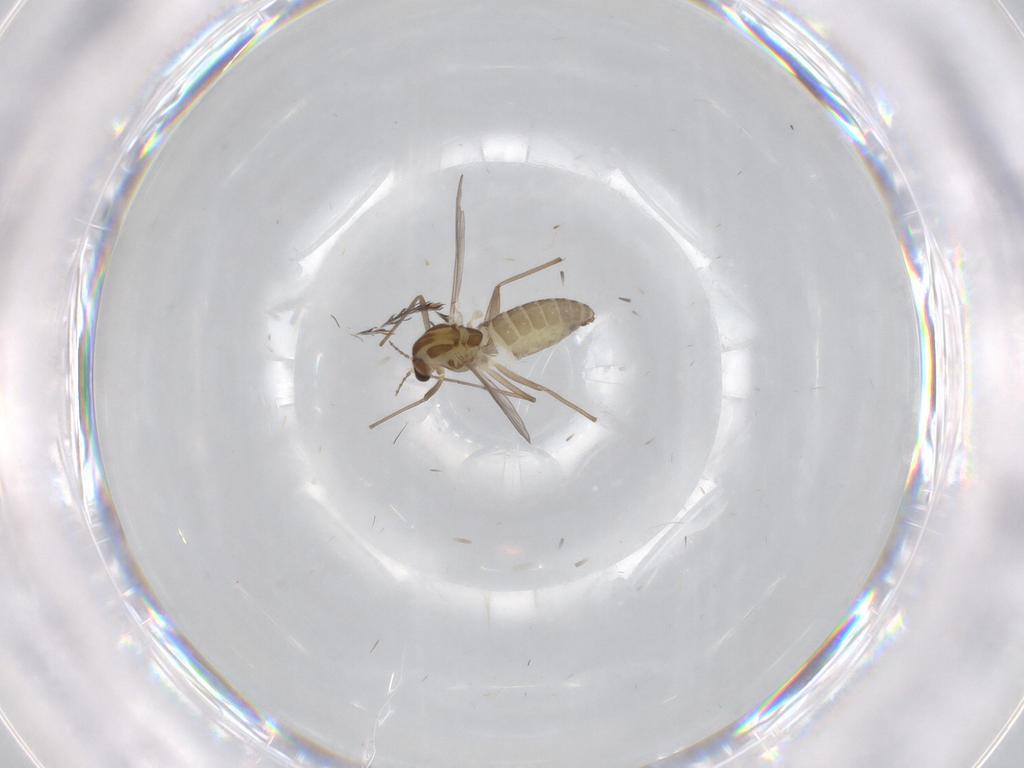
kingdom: Animalia
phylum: Arthropoda
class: Insecta
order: Diptera
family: Chironomidae
